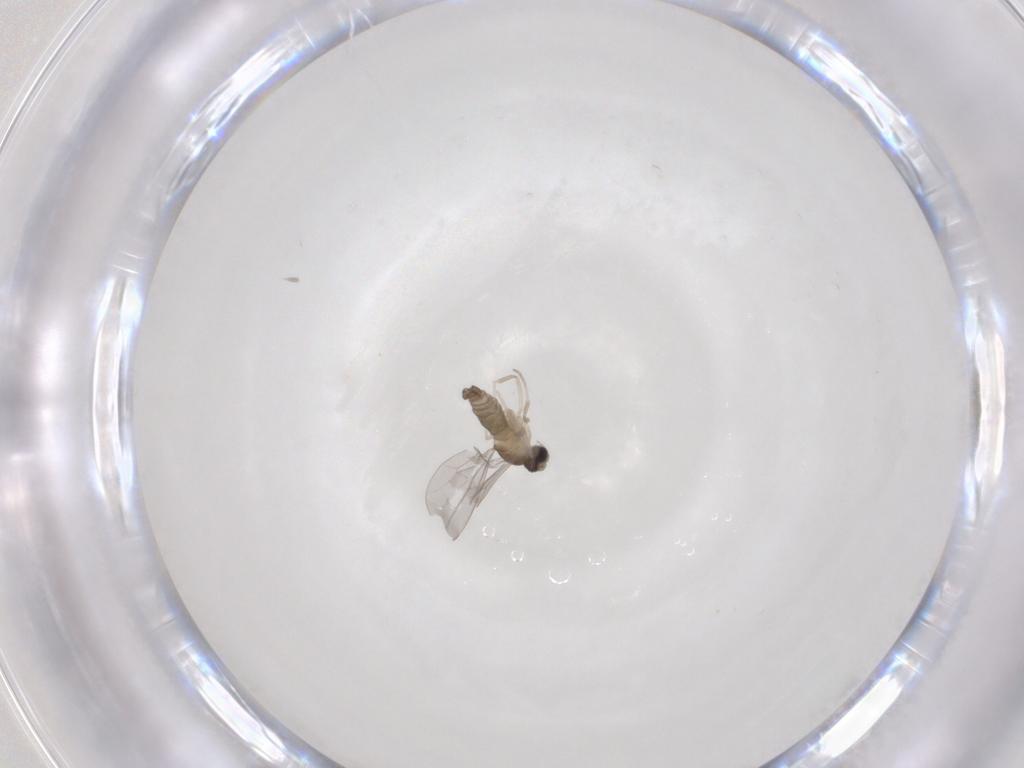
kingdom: Animalia
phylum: Arthropoda
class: Insecta
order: Diptera
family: Cecidomyiidae
